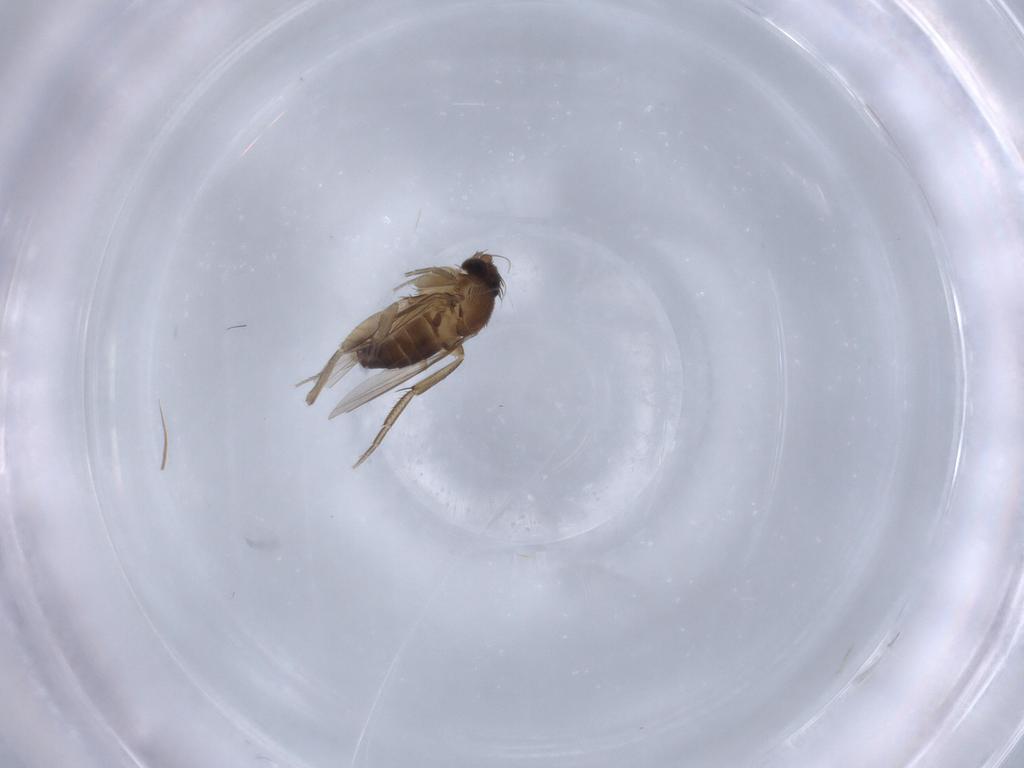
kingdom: Animalia
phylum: Arthropoda
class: Insecta
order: Diptera
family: Phoridae
